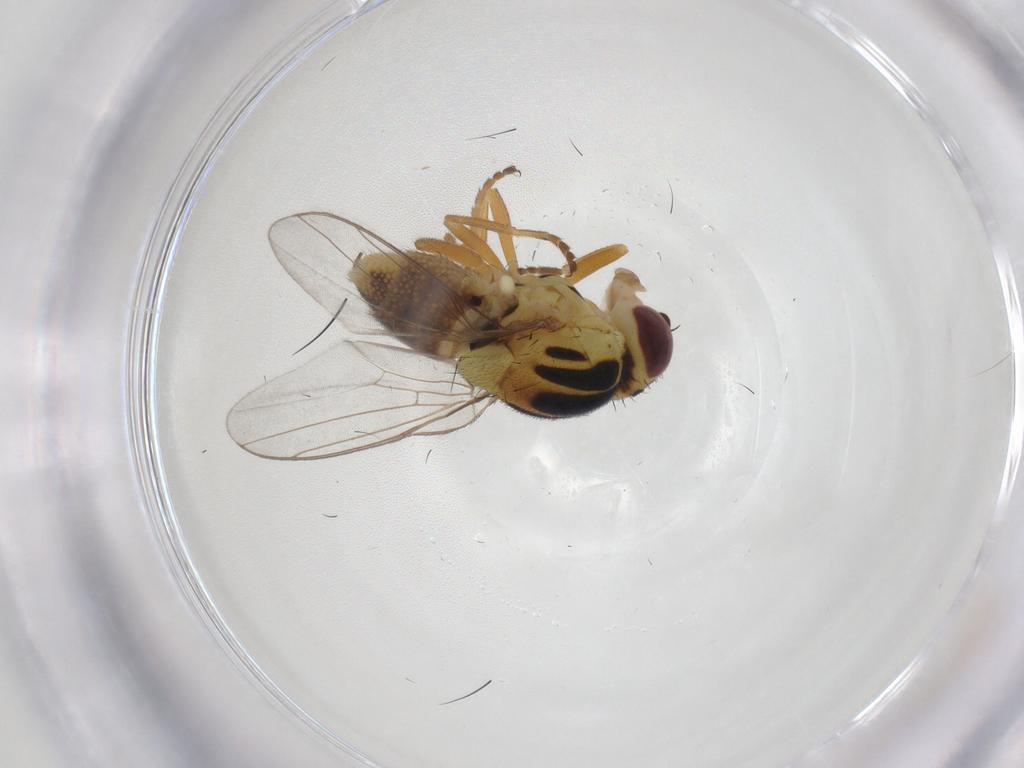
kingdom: Animalia
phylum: Arthropoda
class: Insecta
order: Diptera
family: Chloropidae
